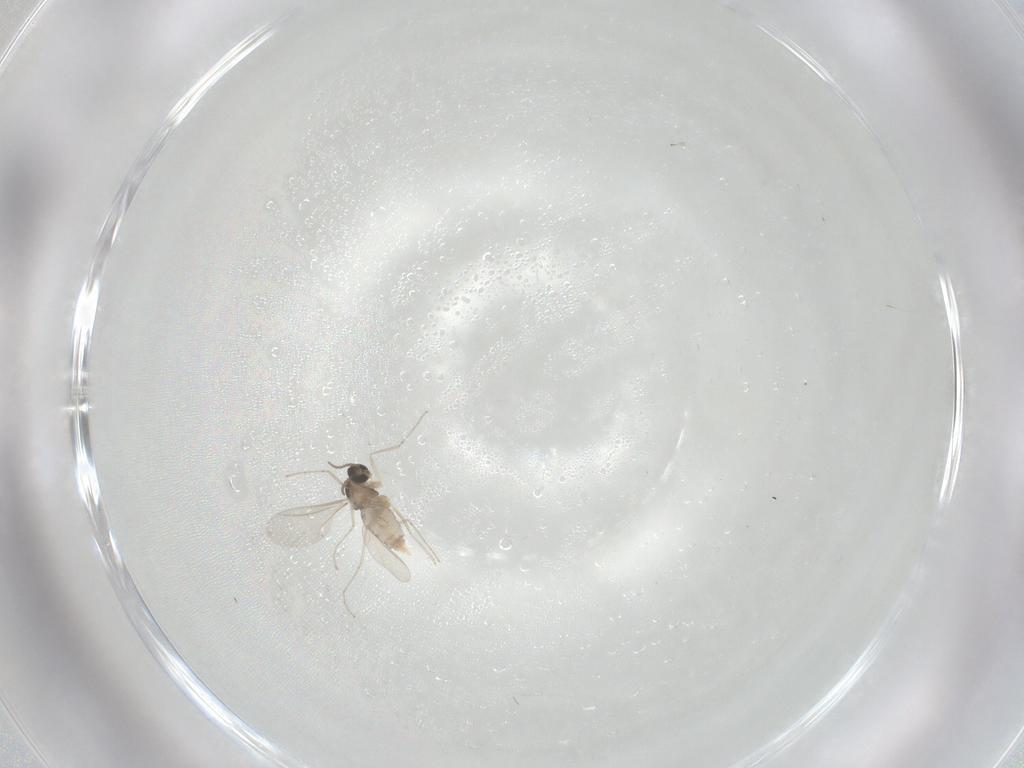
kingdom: Animalia
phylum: Arthropoda
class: Insecta
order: Diptera
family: Cecidomyiidae
